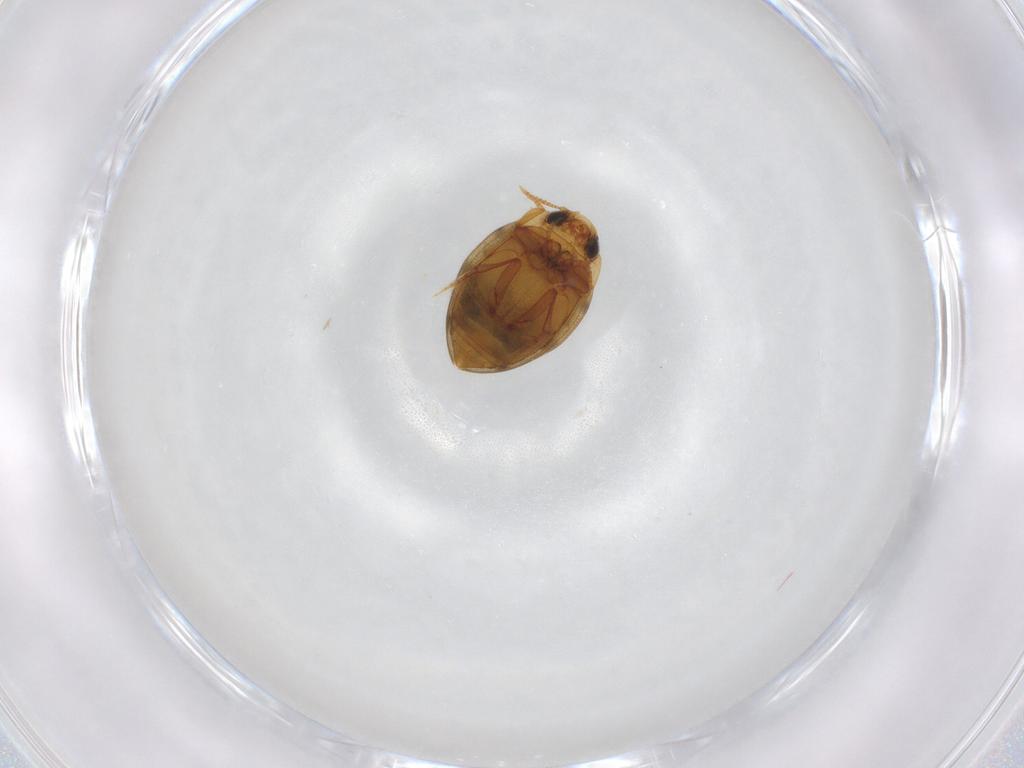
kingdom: Animalia
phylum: Arthropoda
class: Insecta
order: Coleoptera
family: Dytiscidae
